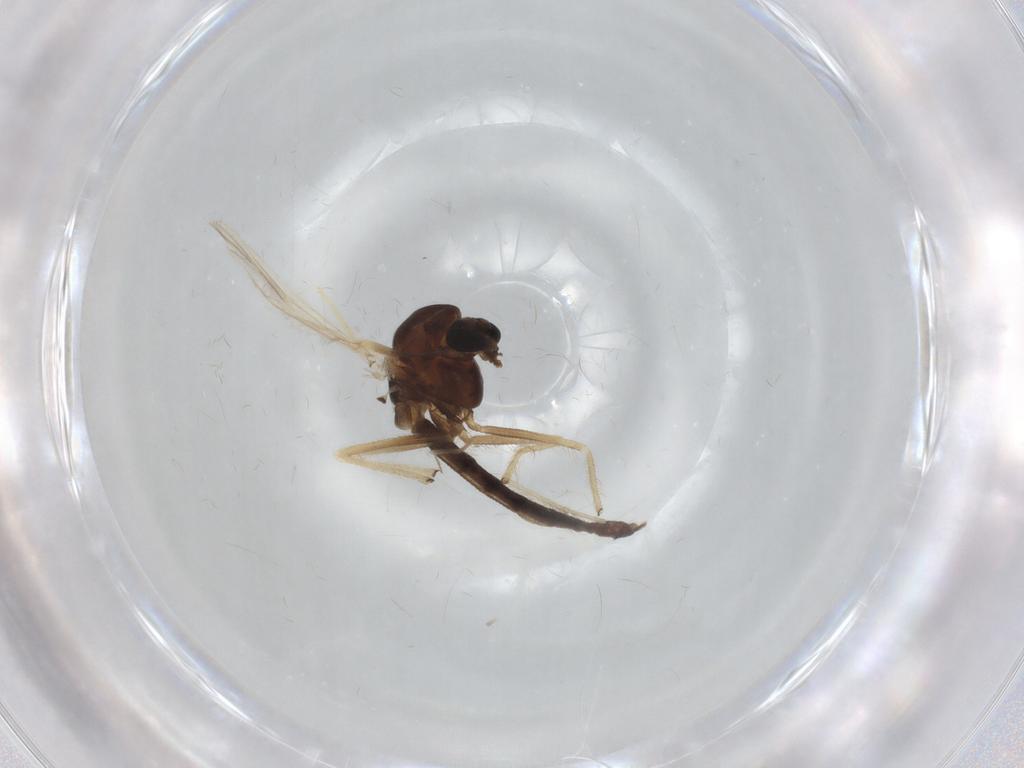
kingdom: Animalia
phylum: Arthropoda
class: Insecta
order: Diptera
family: Chironomidae
